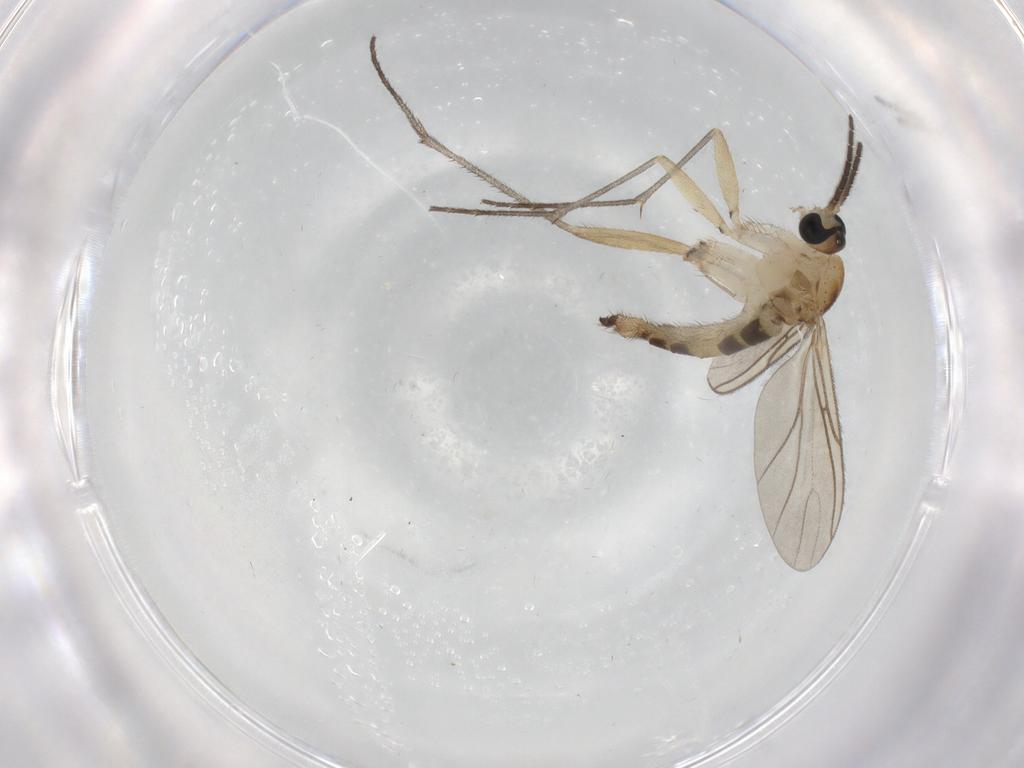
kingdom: Animalia
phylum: Arthropoda
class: Insecta
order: Diptera
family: Sciaridae
